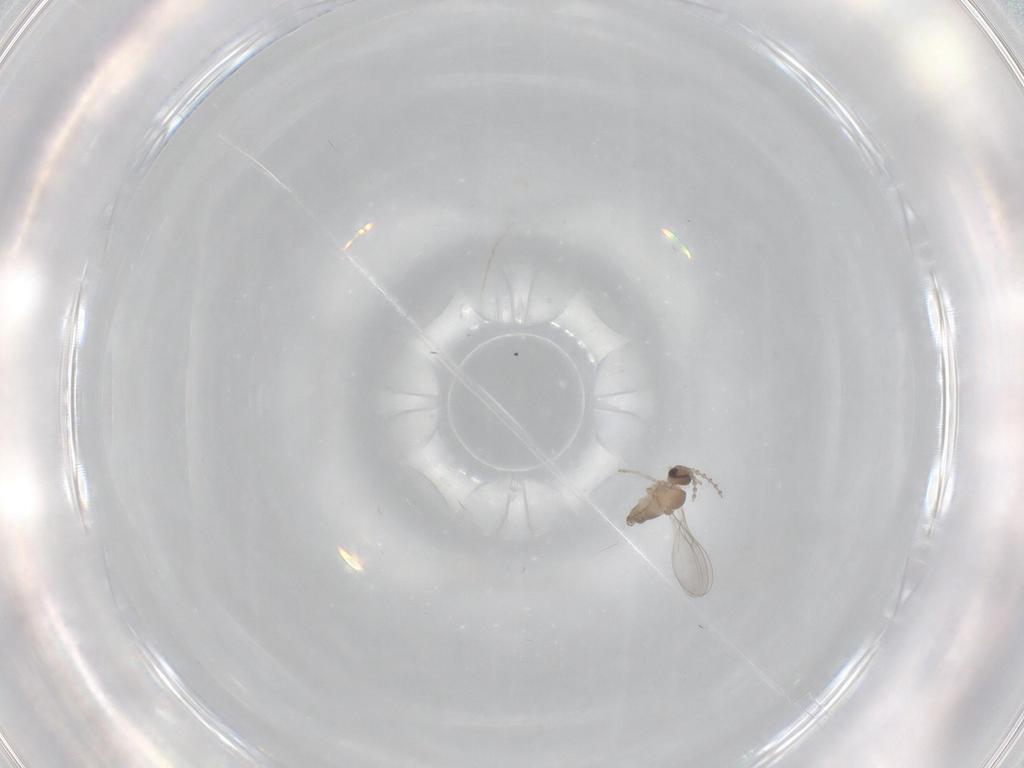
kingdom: Animalia
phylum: Arthropoda
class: Insecta
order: Diptera
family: Cecidomyiidae
